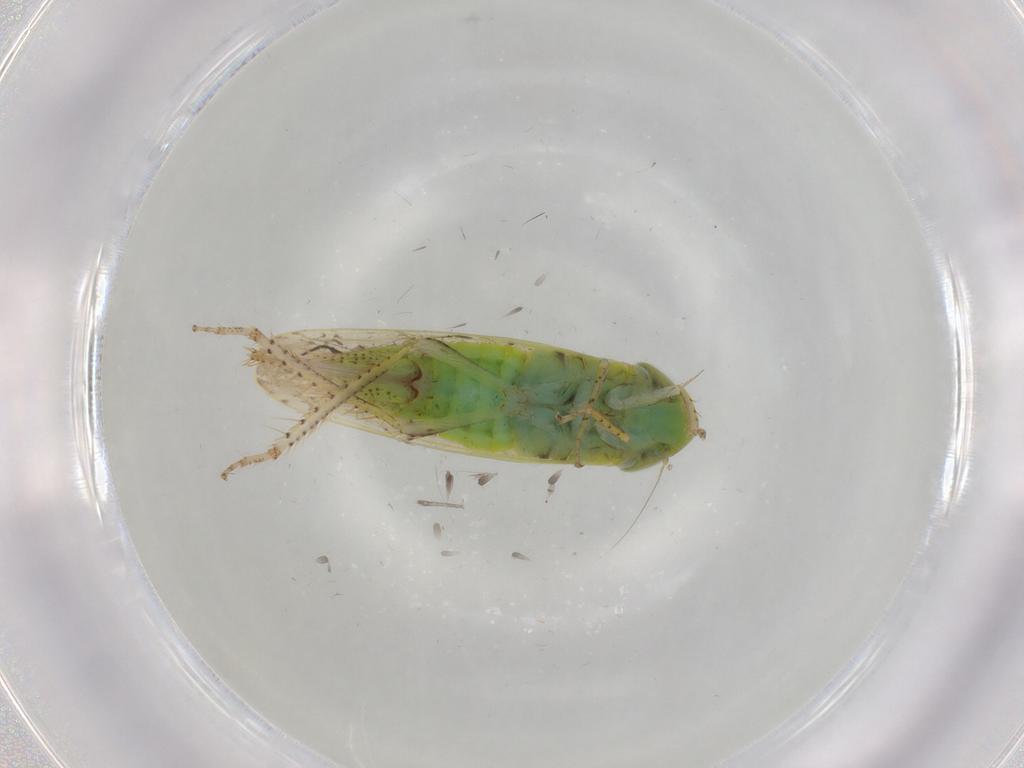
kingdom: Animalia
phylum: Arthropoda
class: Insecta
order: Hemiptera
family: Cicadellidae
